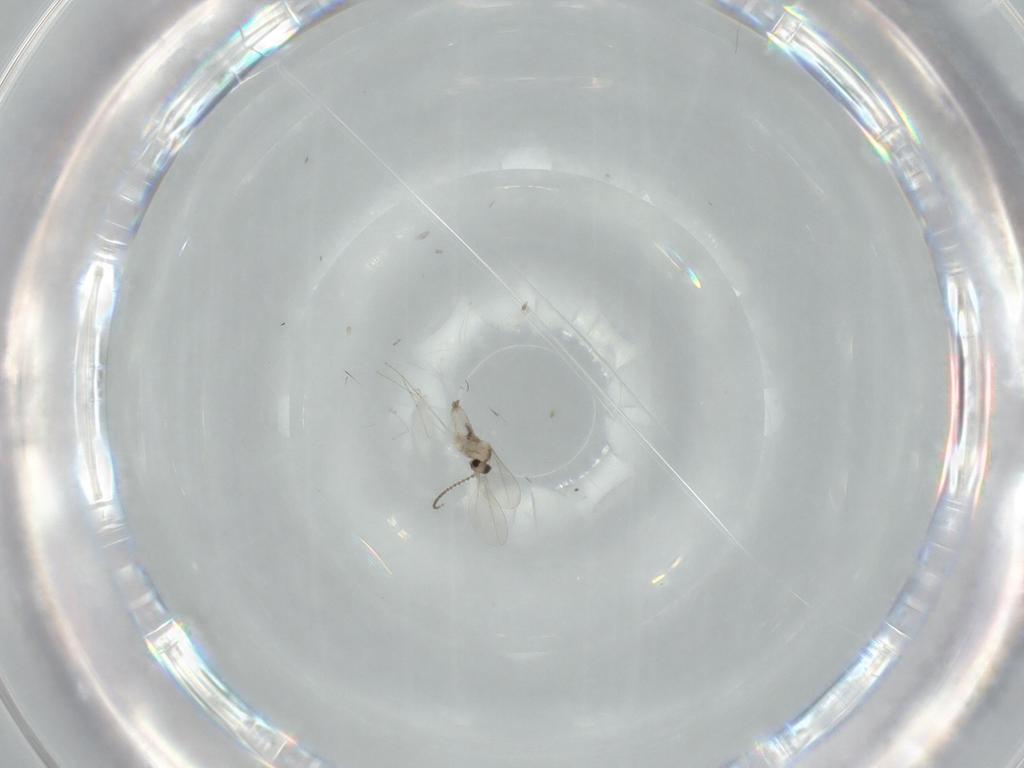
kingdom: Animalia
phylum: Arthropoda
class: Insecta
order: Diptera
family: Cecidomyiidae
